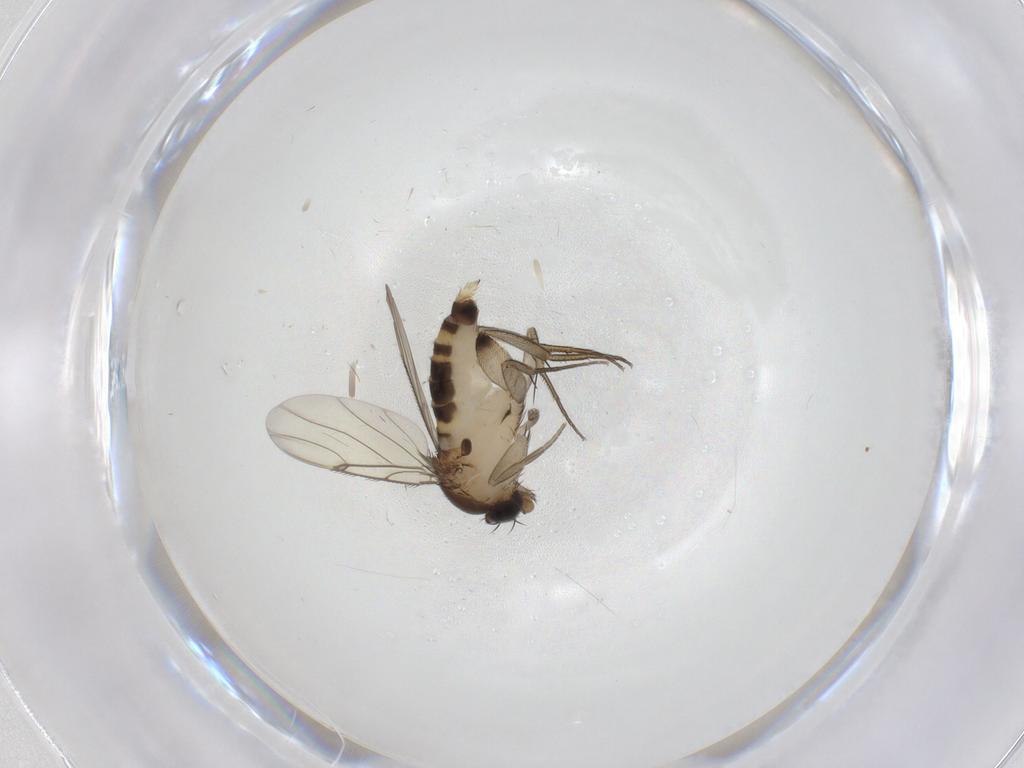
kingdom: Animalia
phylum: Arthropoda
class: Insecta
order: Diptera
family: Phoridae
